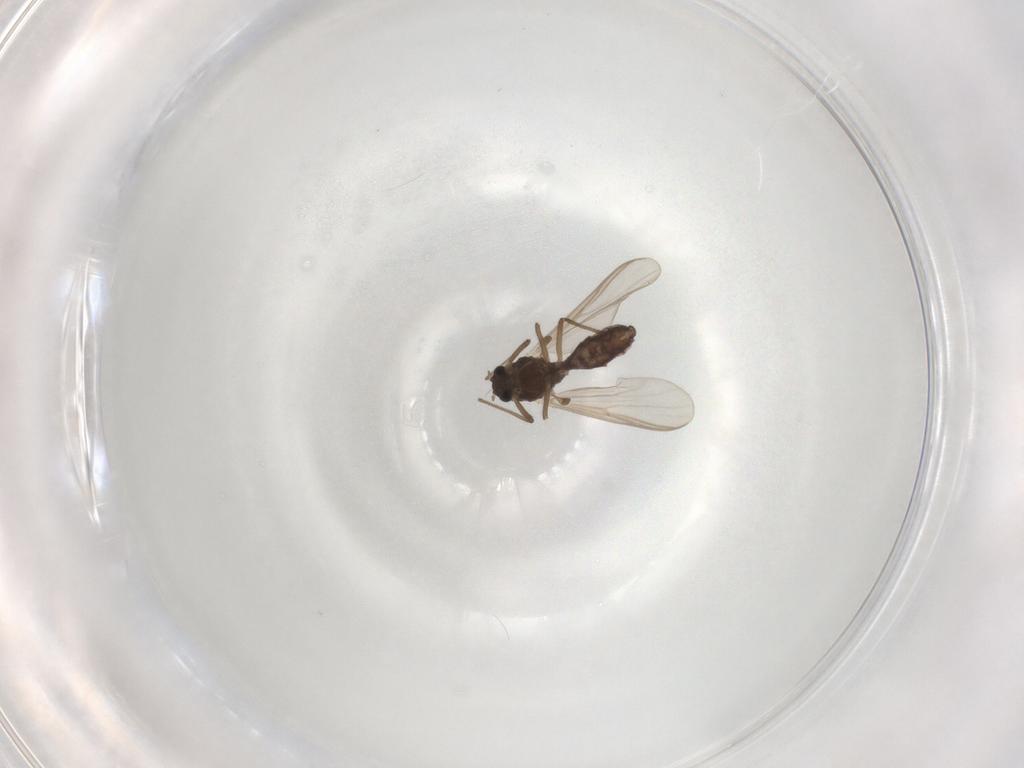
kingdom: Animalia
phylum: Arthropoda
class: Insecta
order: Diptera
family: Chironomidae
